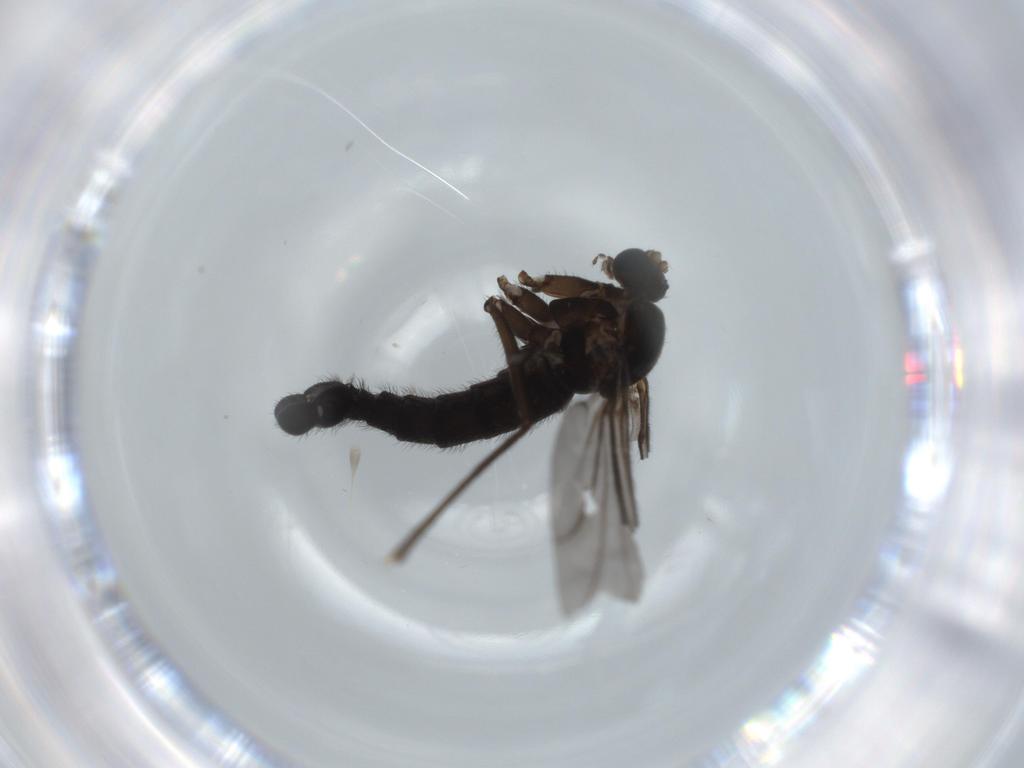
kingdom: Animalia
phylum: Arthropoda
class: Insecta
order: Diptera
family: Sciaridae
